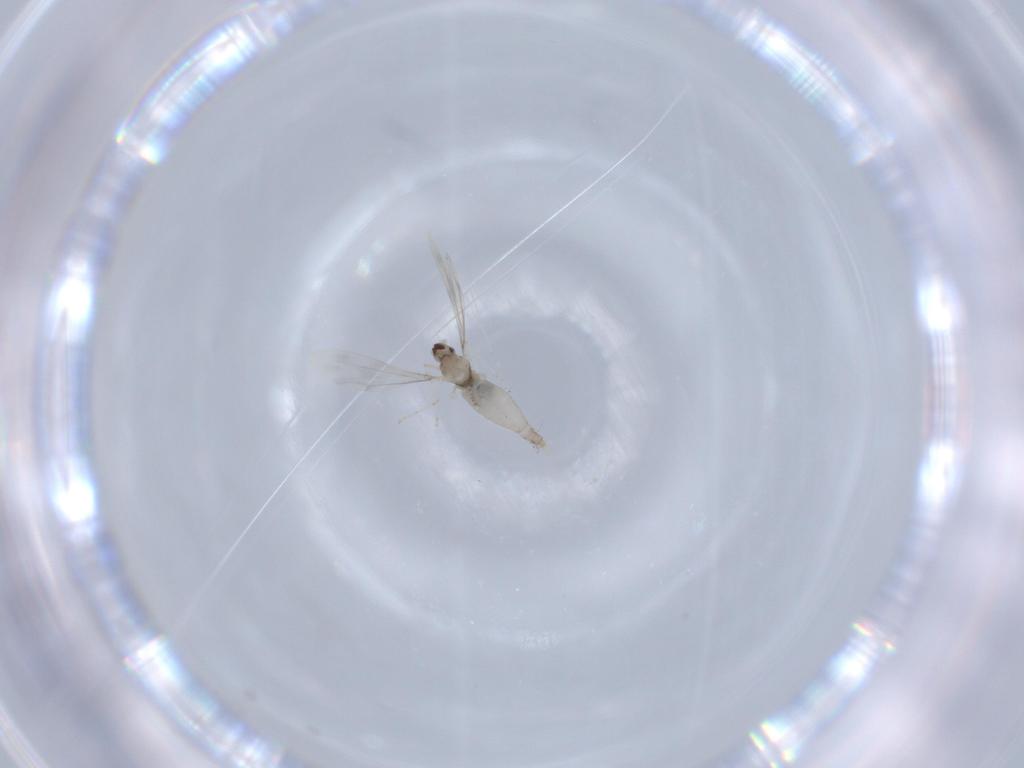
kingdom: Animalia
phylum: Arthropoda
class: Insecta
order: Diptera
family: Cecidomyiidae
